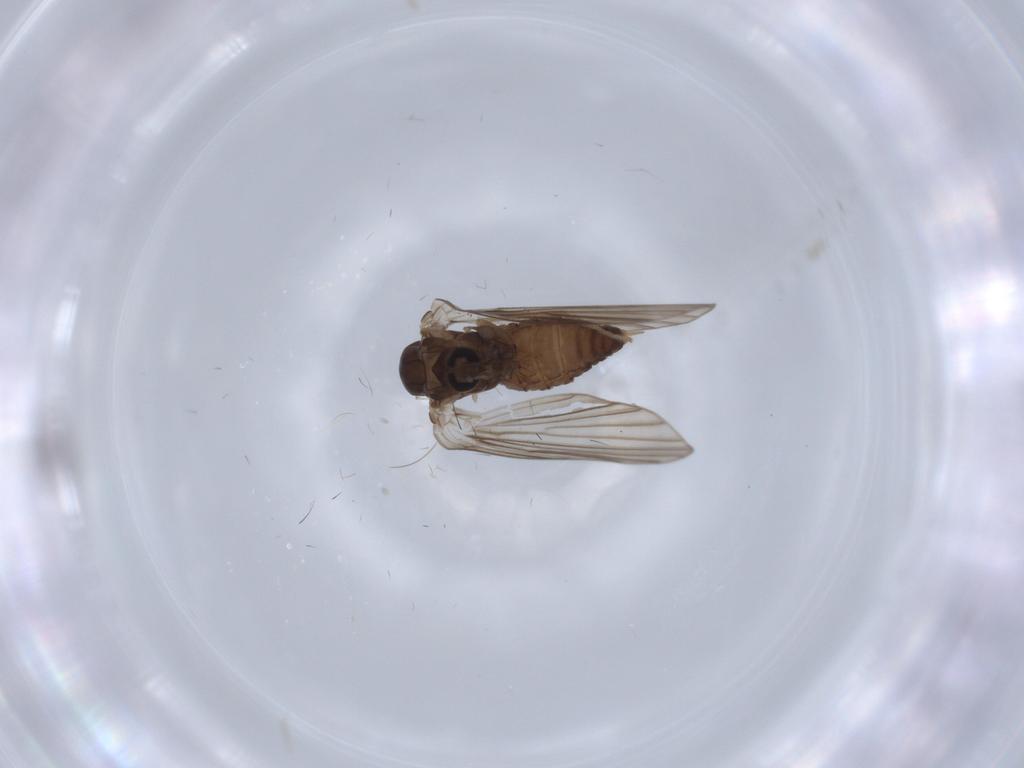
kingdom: Animalia
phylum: Arthropoda
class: Insecta
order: Diptera
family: Psychodidae
